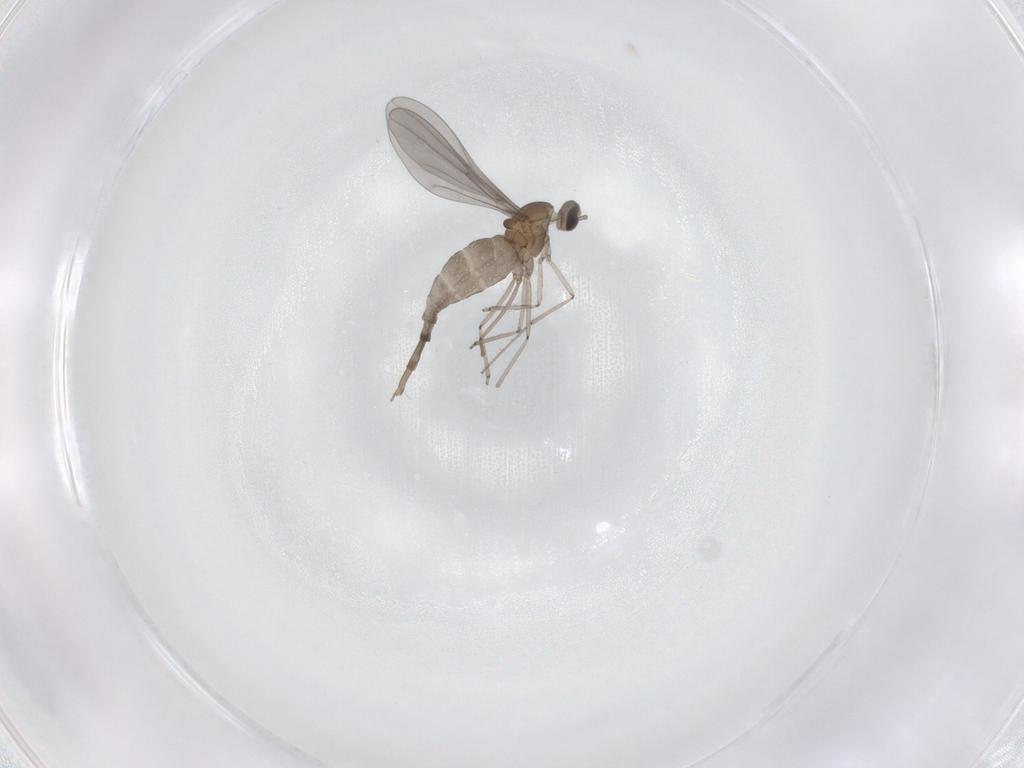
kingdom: Animalia
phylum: Arthropoda
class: Insecta
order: Diptera
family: Cecidomyiidae
